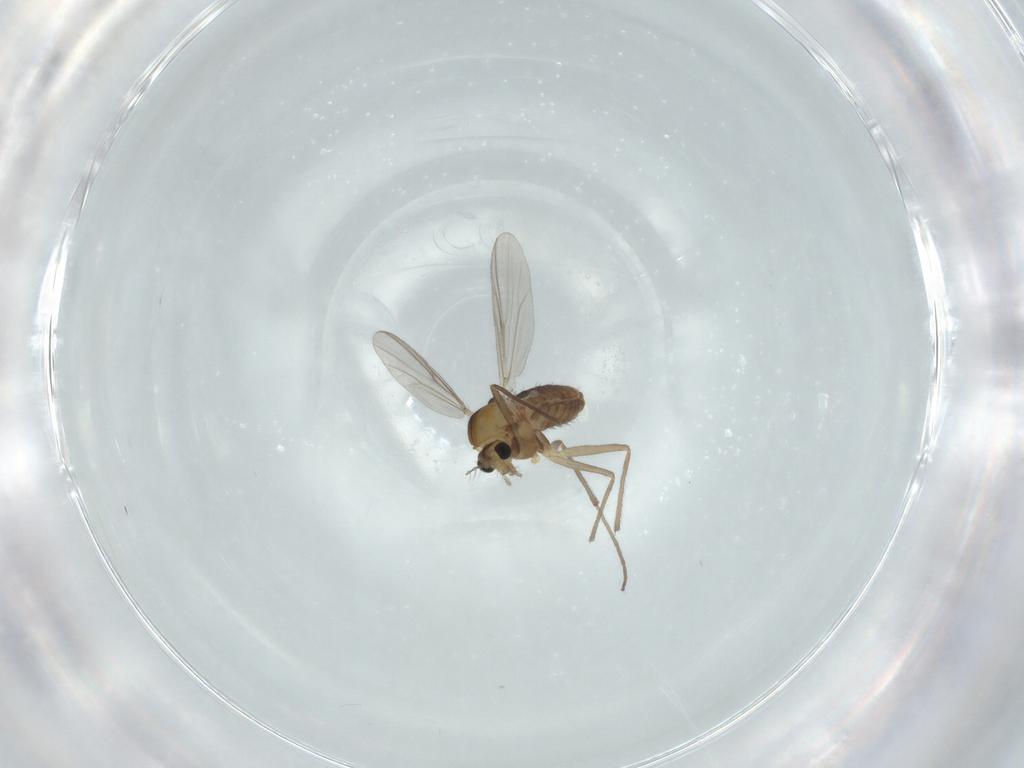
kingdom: Animalia
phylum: Arthropoda
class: Insecta
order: Diptera
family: Chironomidae
